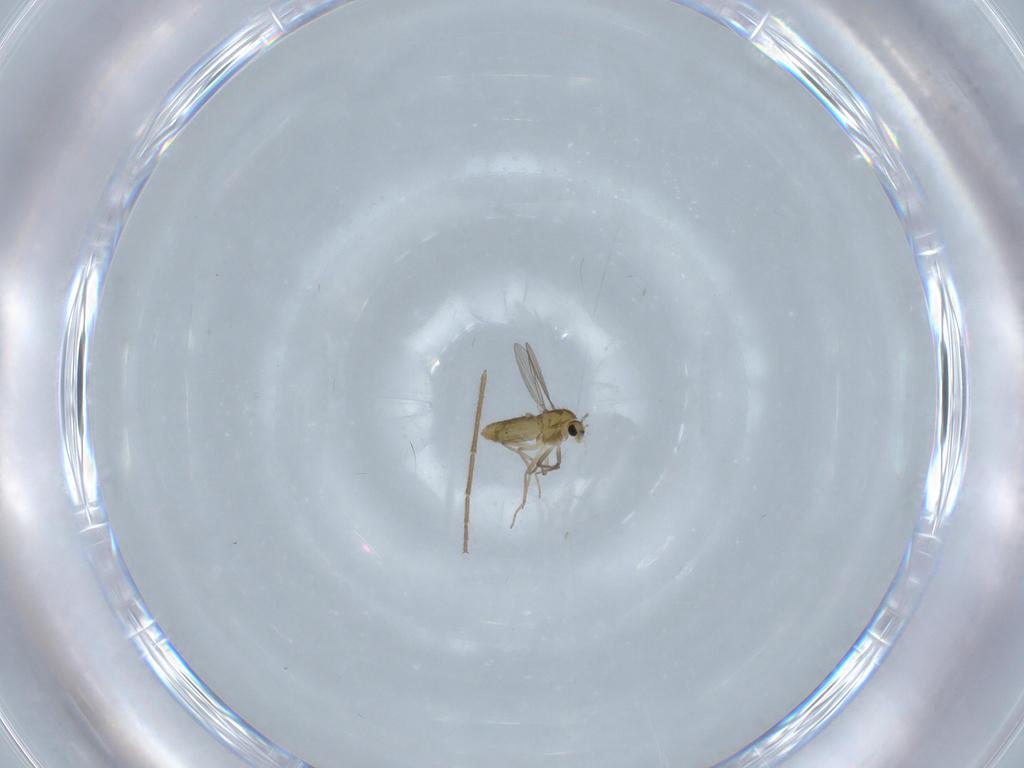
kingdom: Animalia
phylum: Arthropoda
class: Insecta
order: Diptera
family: Chironomidae
